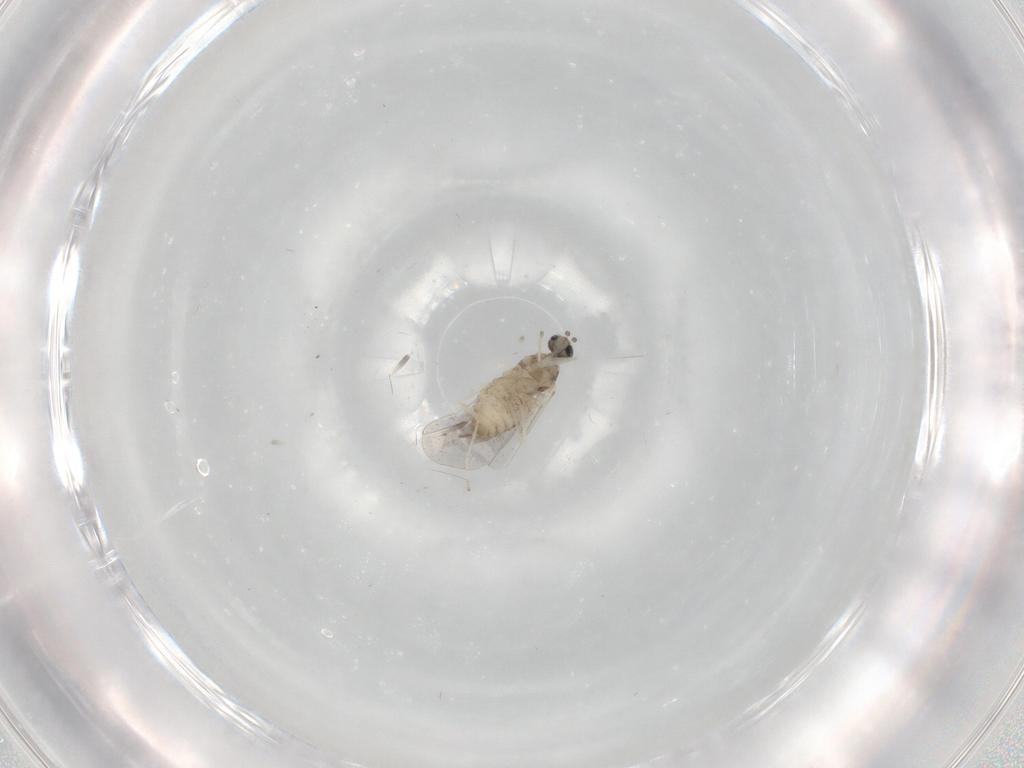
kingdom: Animalia
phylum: Arthropoda
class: Insecta
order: Diptera
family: Cecidomyiidae
